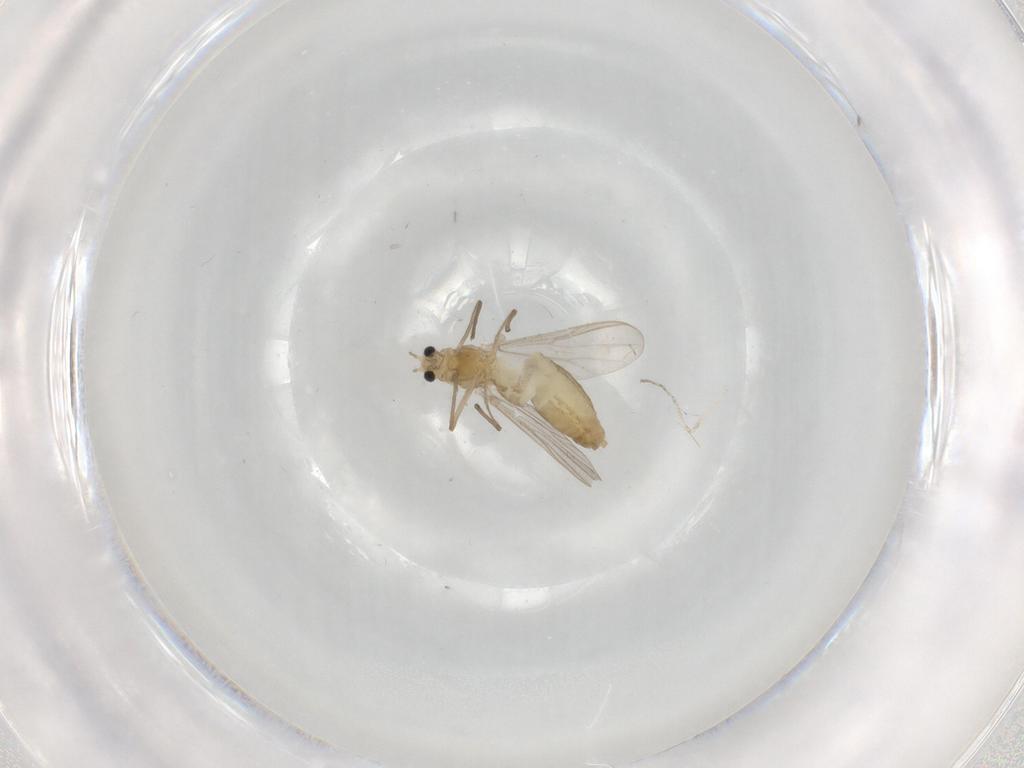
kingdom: Animalia
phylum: Arthropoda
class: Insecta
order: Diptera
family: Chironomidae
